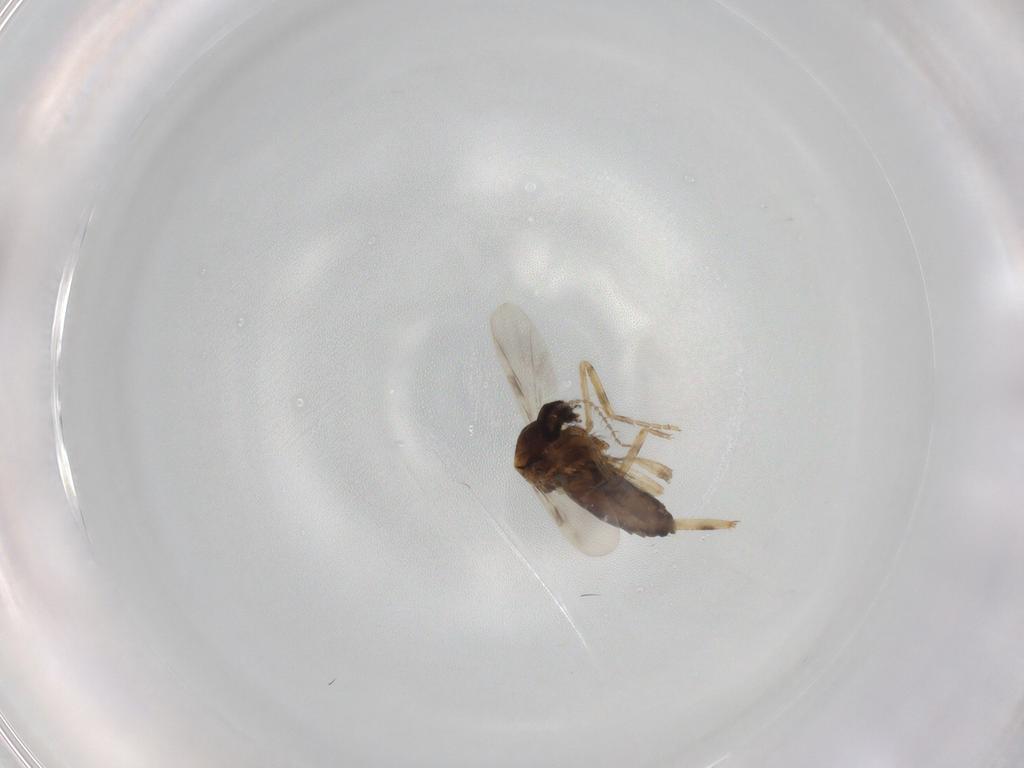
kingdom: Animalia
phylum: Arthropoda
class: Insecta
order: Diptera
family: Ceratopogonidae
